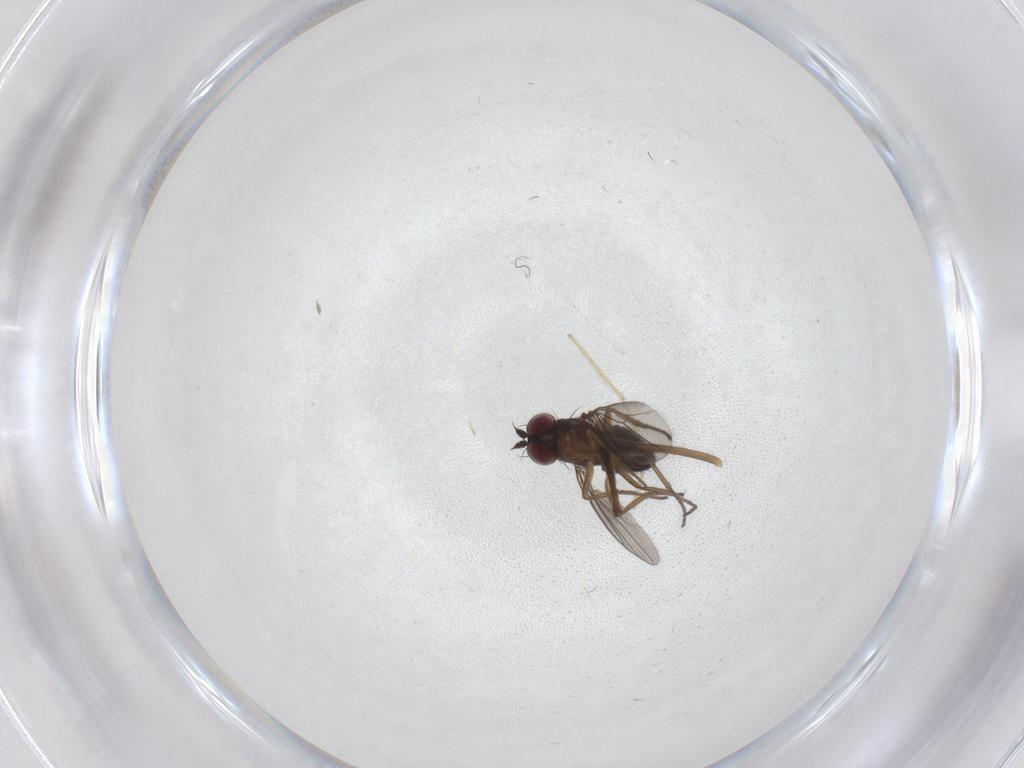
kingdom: Animalia
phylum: Arthropoda
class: Insecta
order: Diptera
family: Dolichopodidae
